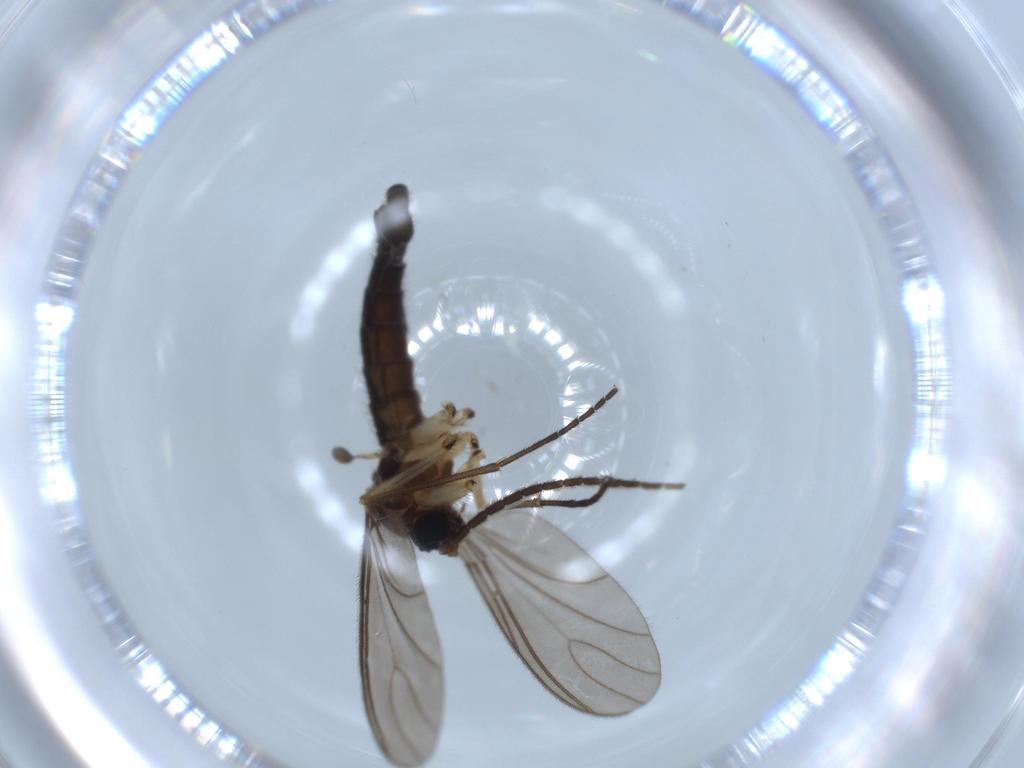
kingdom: Animalia
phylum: Arthropoda
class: Insecta
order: Diptera
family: Sciaridae
